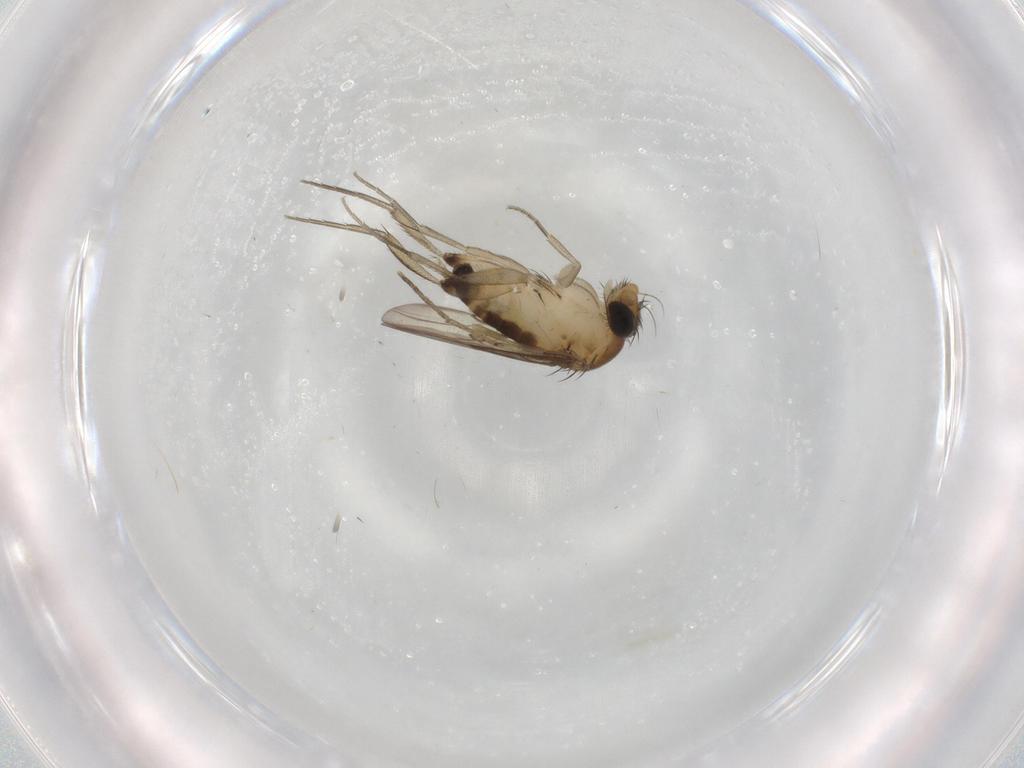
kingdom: Animalia
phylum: Arthropoda
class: Insecta
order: Diptera
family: Phoridae
